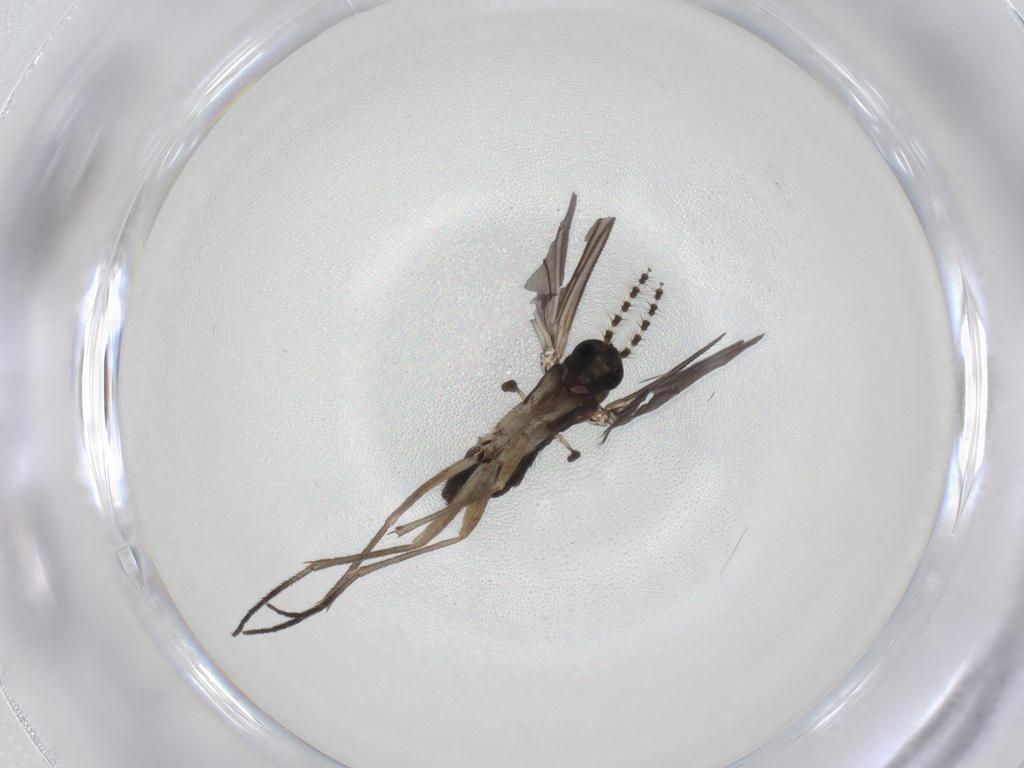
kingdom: Animalia
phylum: Arthropoda
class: Insecta
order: Diptera
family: Sciaridae
